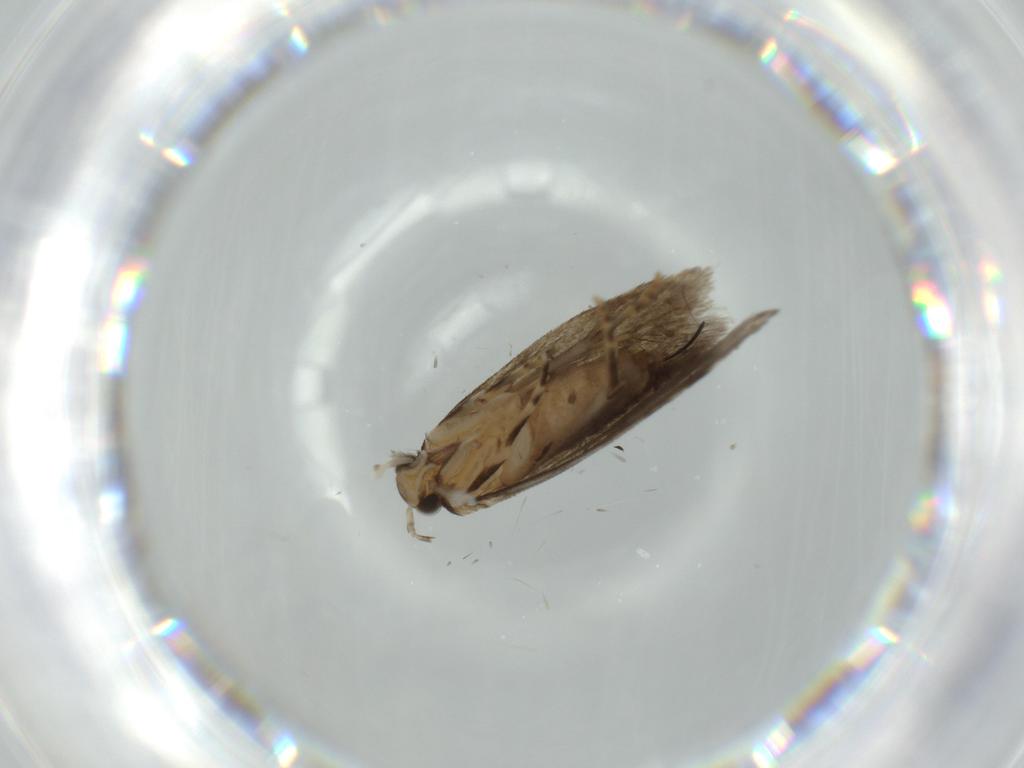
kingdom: Animalia
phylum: Arthropoda
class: Insecta
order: Lepidoptera
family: Tineidae
